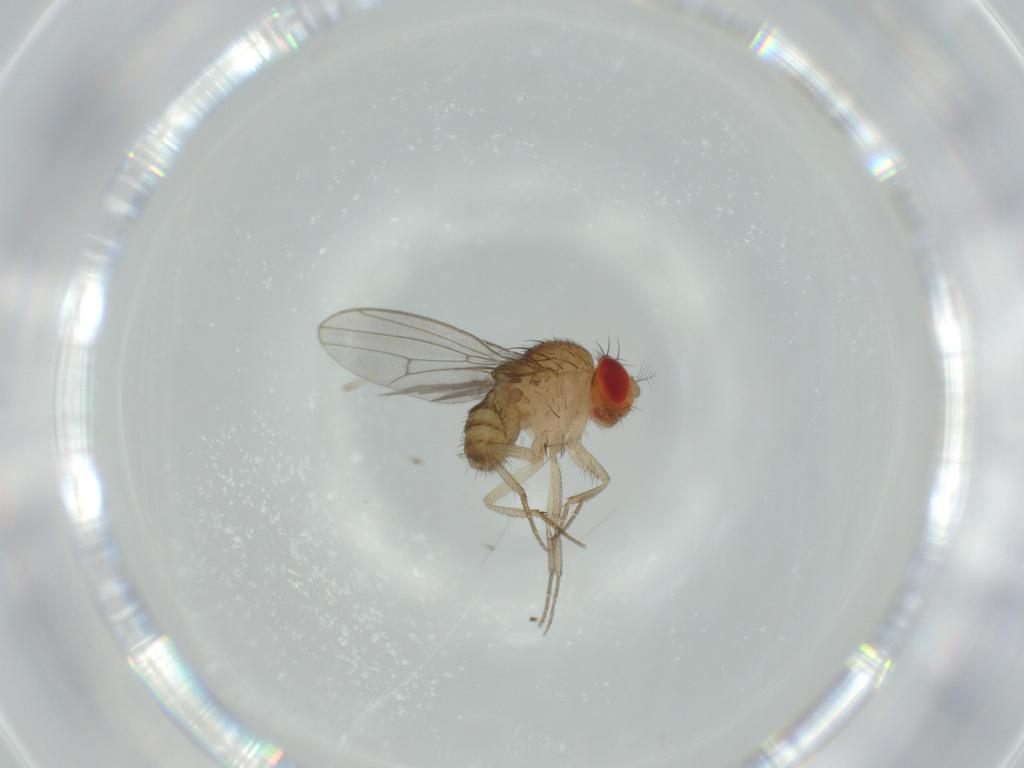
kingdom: Animalia
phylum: Arthropoda
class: Insecta
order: Diptera
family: Drosophilidae
